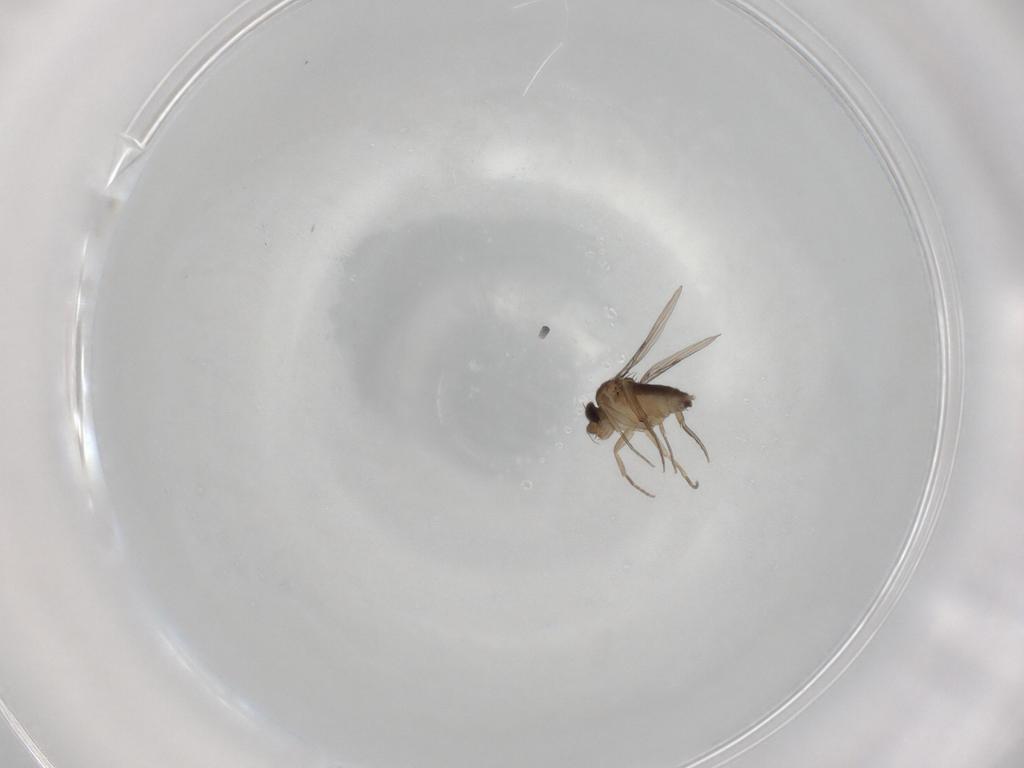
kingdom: Animalia
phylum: Arthropoda
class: Insecta
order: Diptera
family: Phoridae
